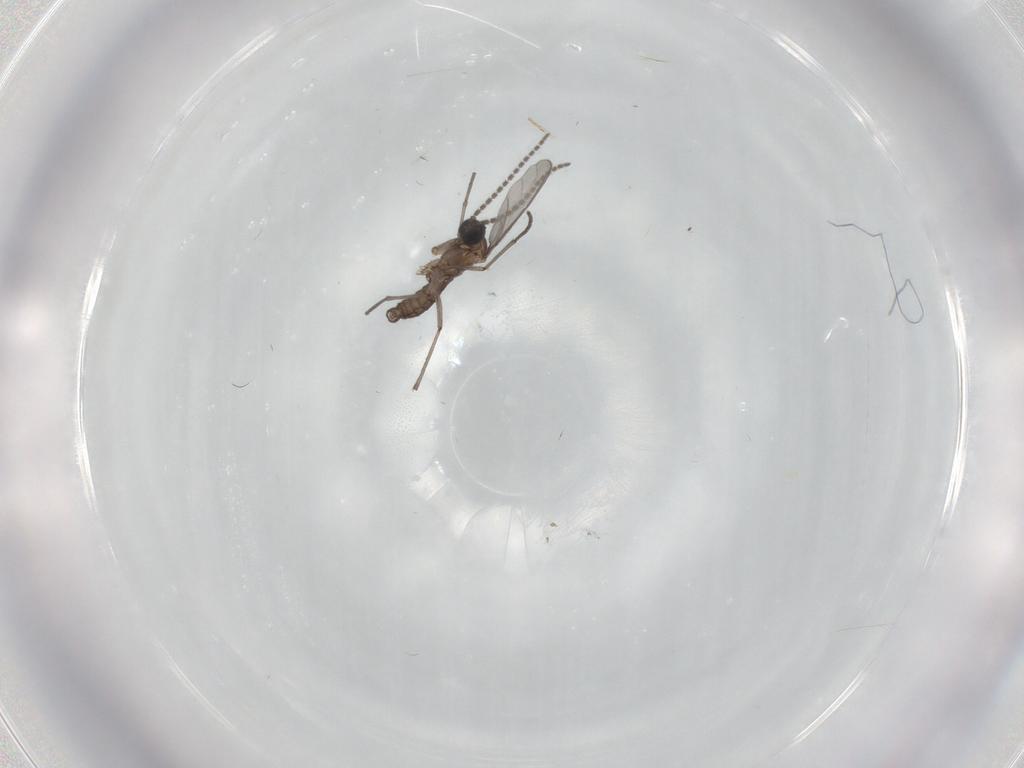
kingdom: Animalia
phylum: Arthropoda
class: Insecta
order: Diptera
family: Sciaridae
